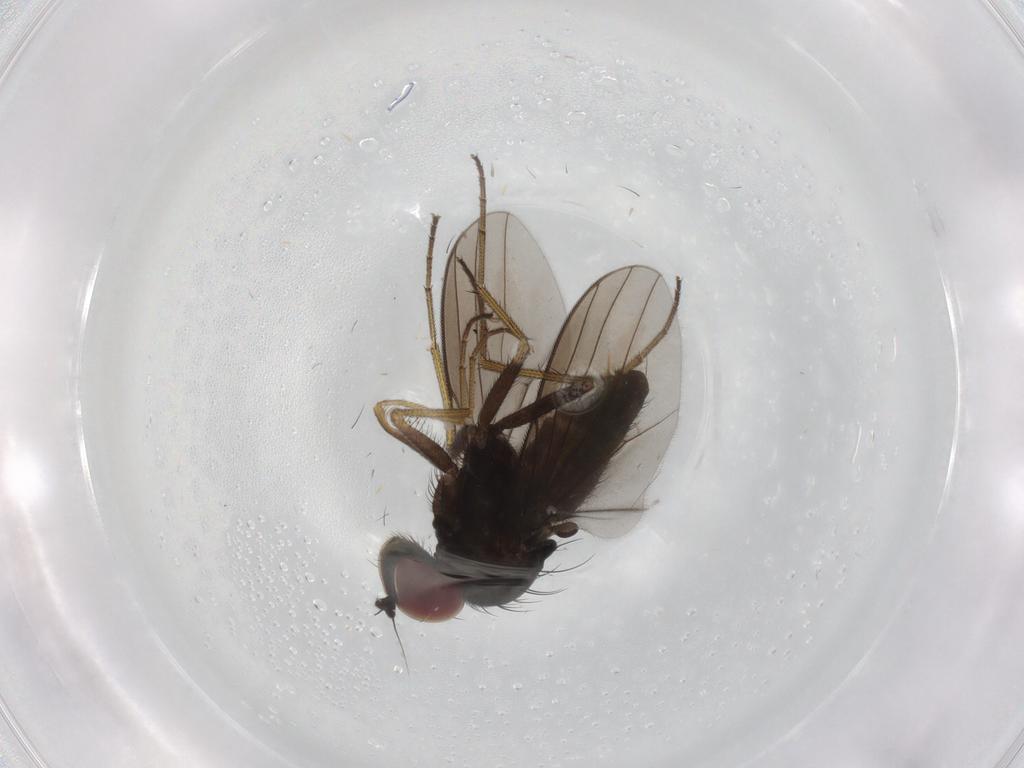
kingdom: Animalia
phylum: Arthropoda
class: Insecta
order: Diptera
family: Dolichopodidae
